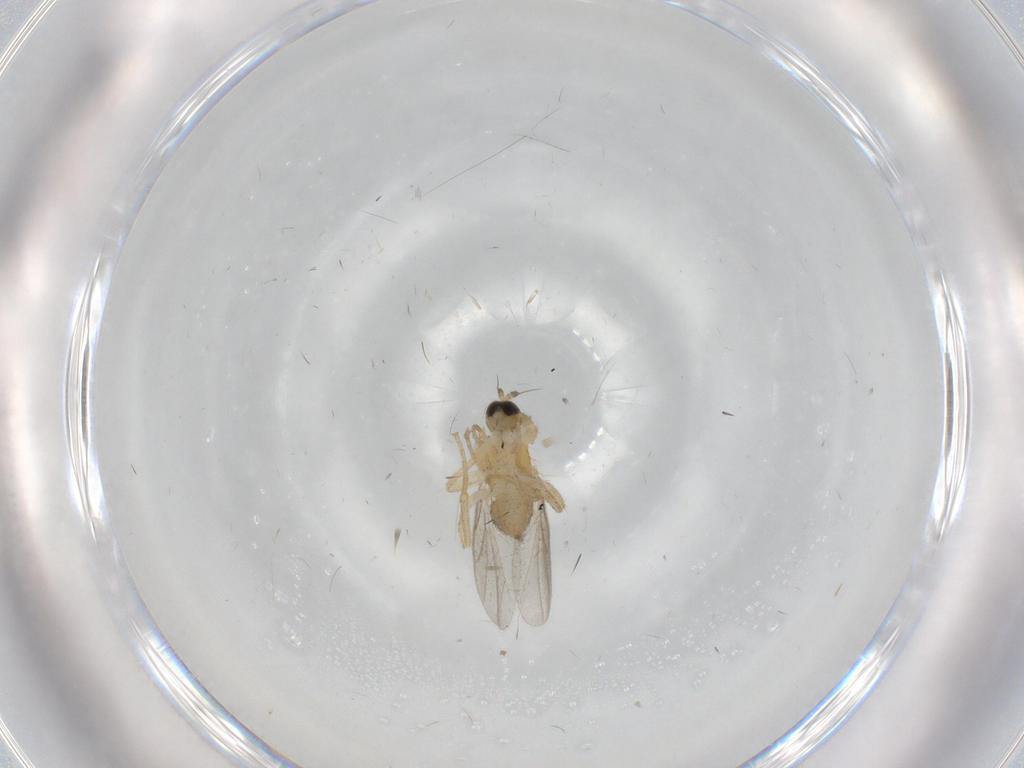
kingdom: Animalia
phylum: Arthropoda
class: Insecta
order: Diptera
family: Hybotidae
